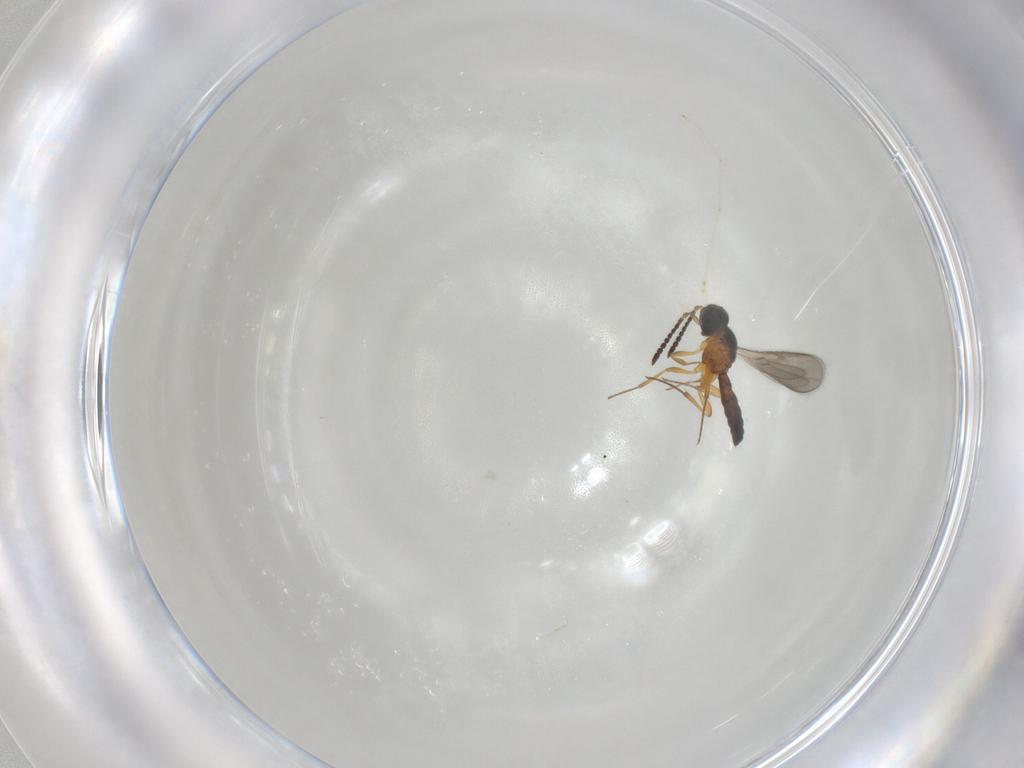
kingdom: Animalia
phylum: Arthropoda
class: Insecta
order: Hymenoptera
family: Scelionidae
